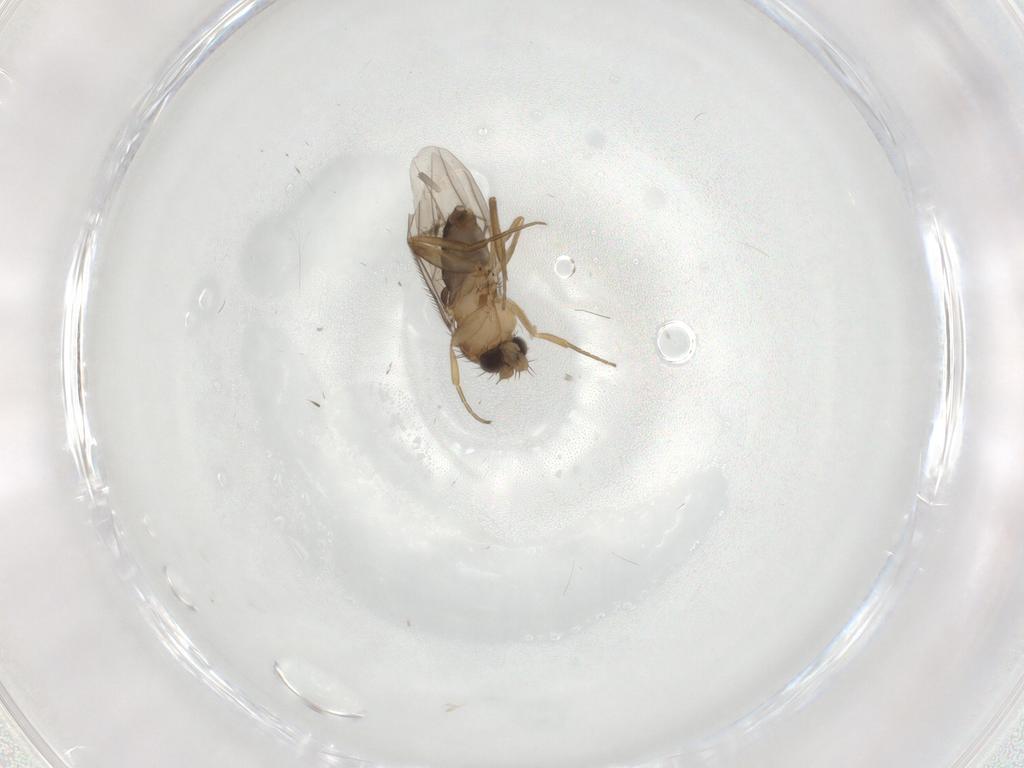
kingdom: Animalia
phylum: Arthropoda
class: Insecta
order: Diptera
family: Phoridae
